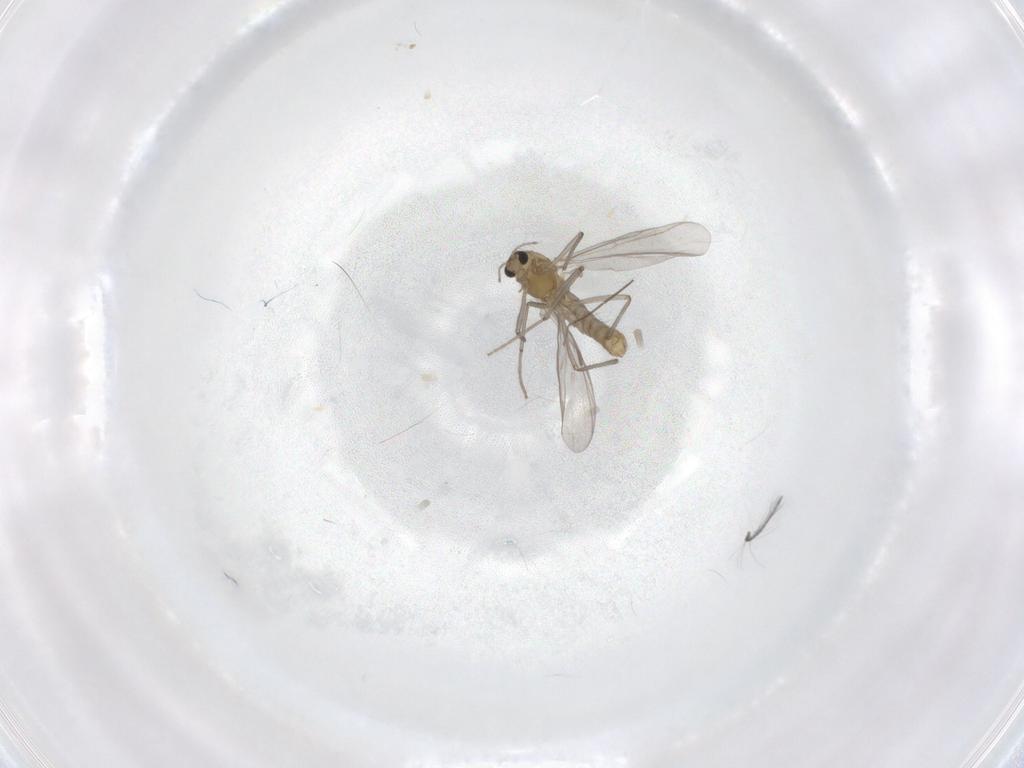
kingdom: Animalia
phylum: Arthropoda
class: Insecta
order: Diptera
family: Chironomidae
